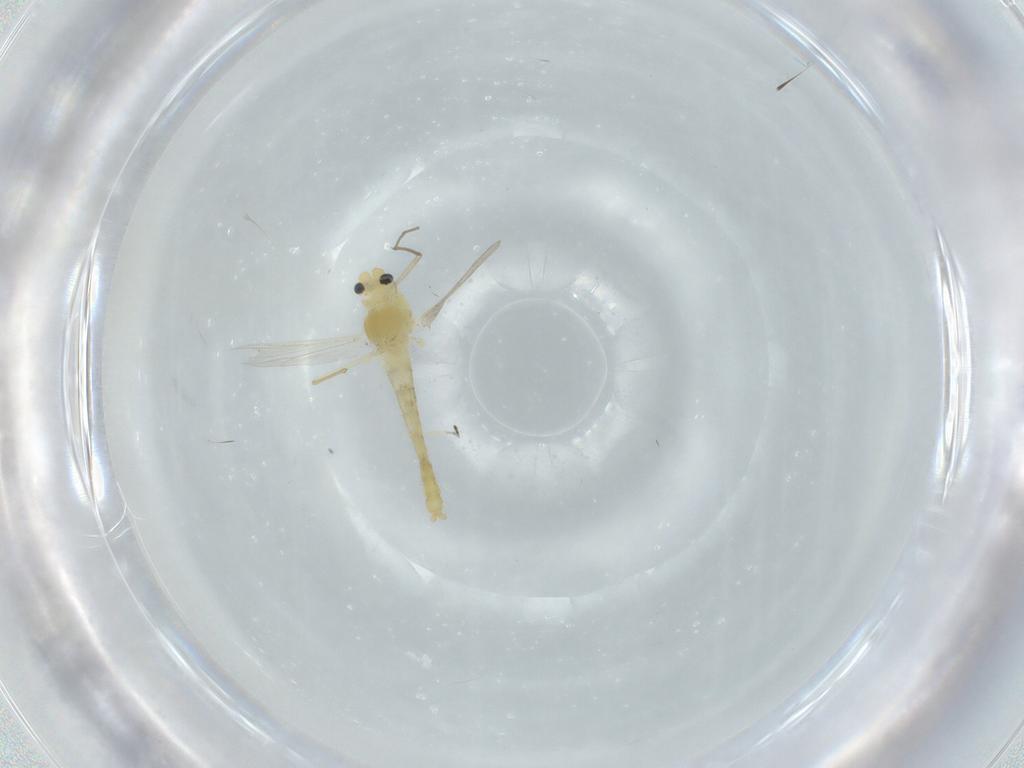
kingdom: Animalia
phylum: Arthropoda
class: Insecta
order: Diptera
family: Chironomidae
